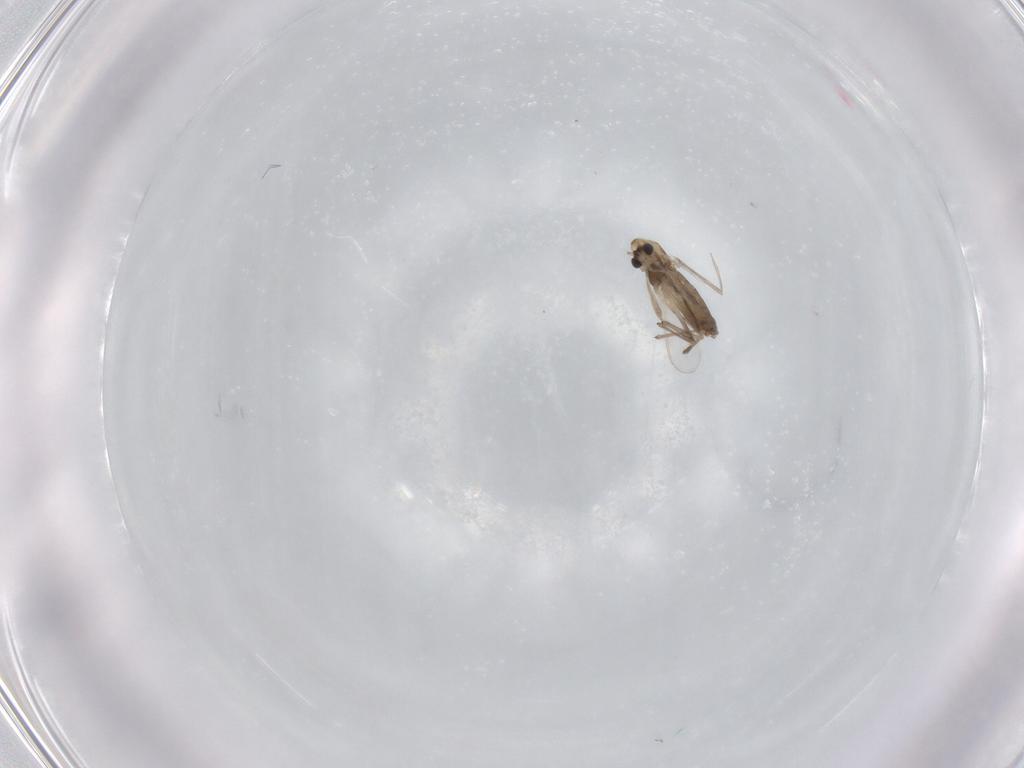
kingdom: Animalia
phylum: Arthropoda
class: Insecta
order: Diptera
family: Chironomidae
